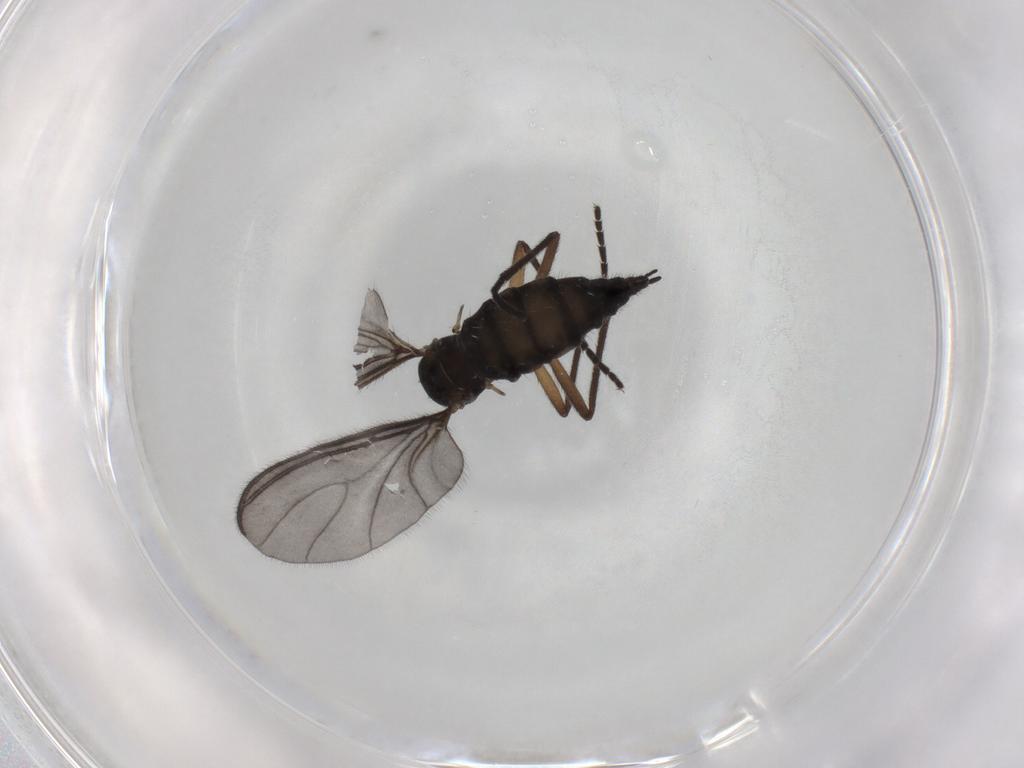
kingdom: Animalia
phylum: Arthropoda
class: Insecta
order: Diptera
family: Sciaridae
